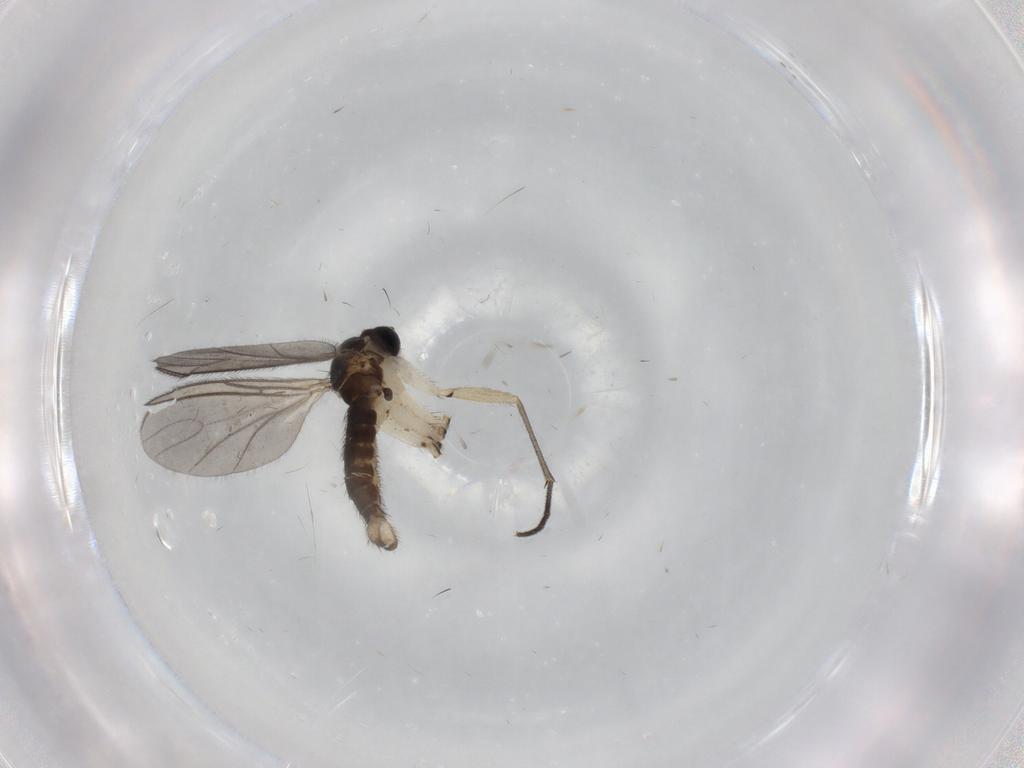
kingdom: Animalia
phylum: Arthropoda
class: Insecta
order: Diptera
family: Sciaridae
